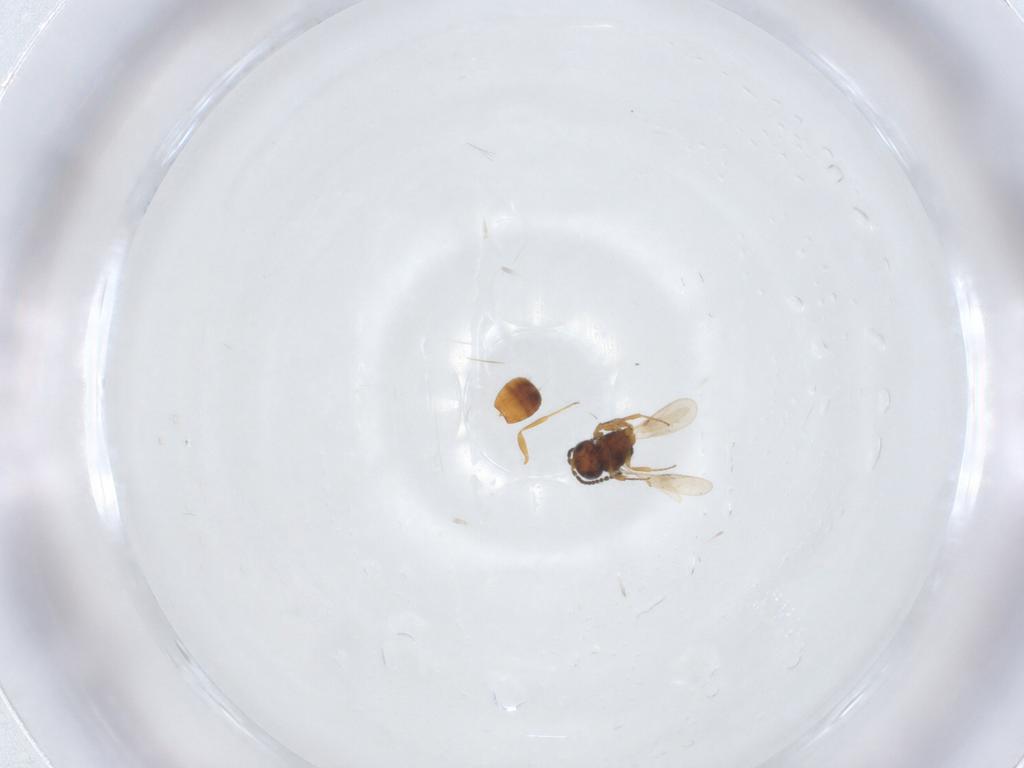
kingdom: Animalia
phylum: Arthropoda
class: Insecta
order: Hymenoptera
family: Scelionidae
